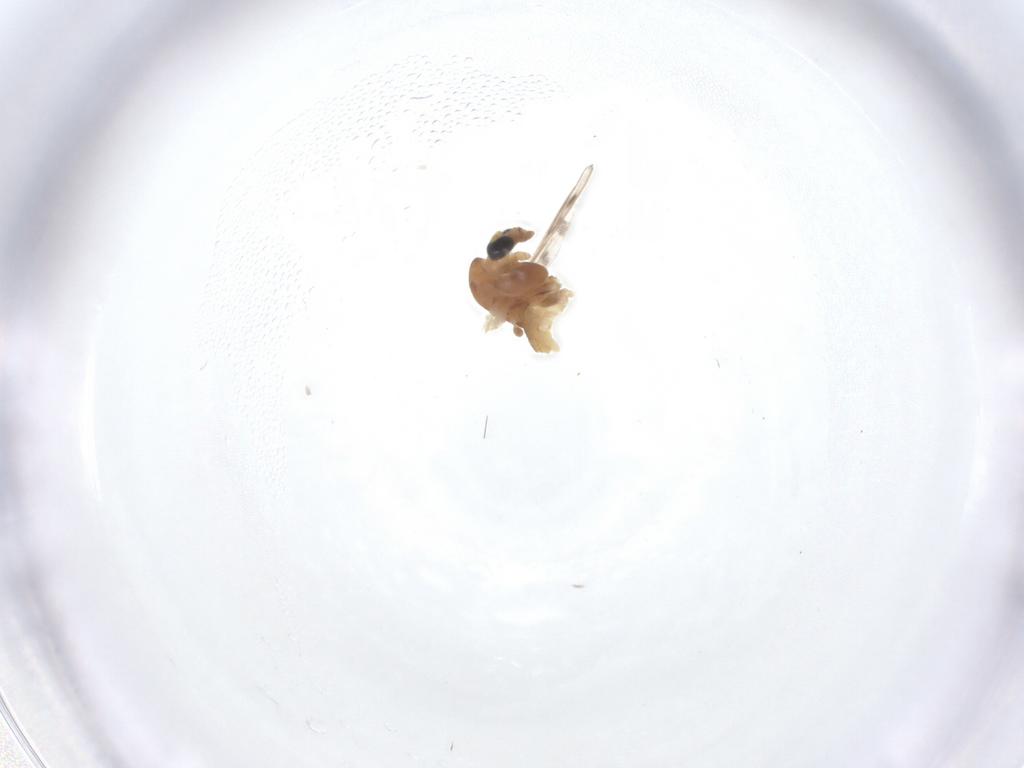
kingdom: Animalia
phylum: Arthropoda
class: Insecta
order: Diptera
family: Chironomidae
